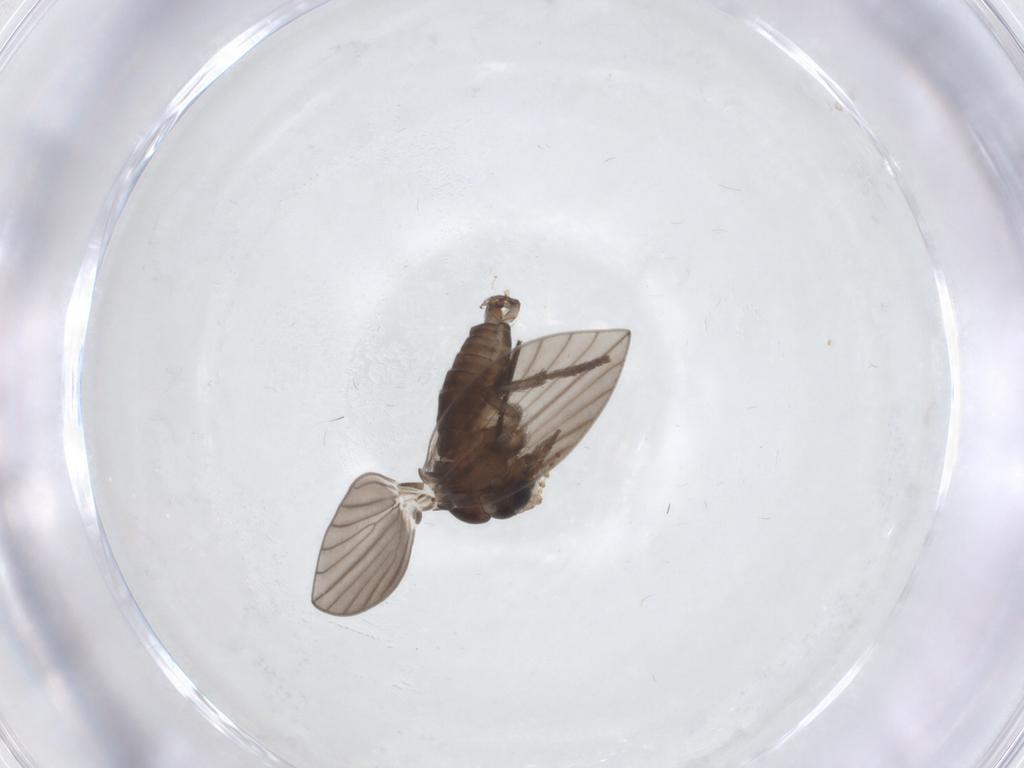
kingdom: Animalia
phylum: Arthropoda
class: Insecta
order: Diptera
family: Psychodidae
